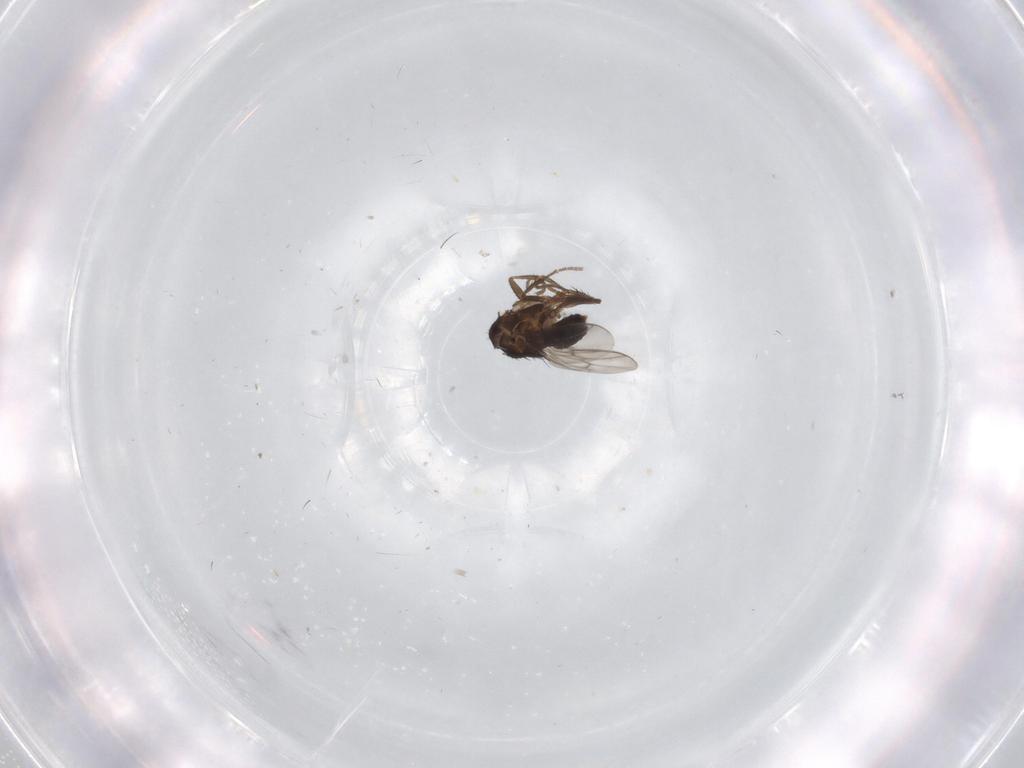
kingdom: Animalia
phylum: Arthropoda
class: Insecta
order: Diptera
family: Sphaeroceridae
